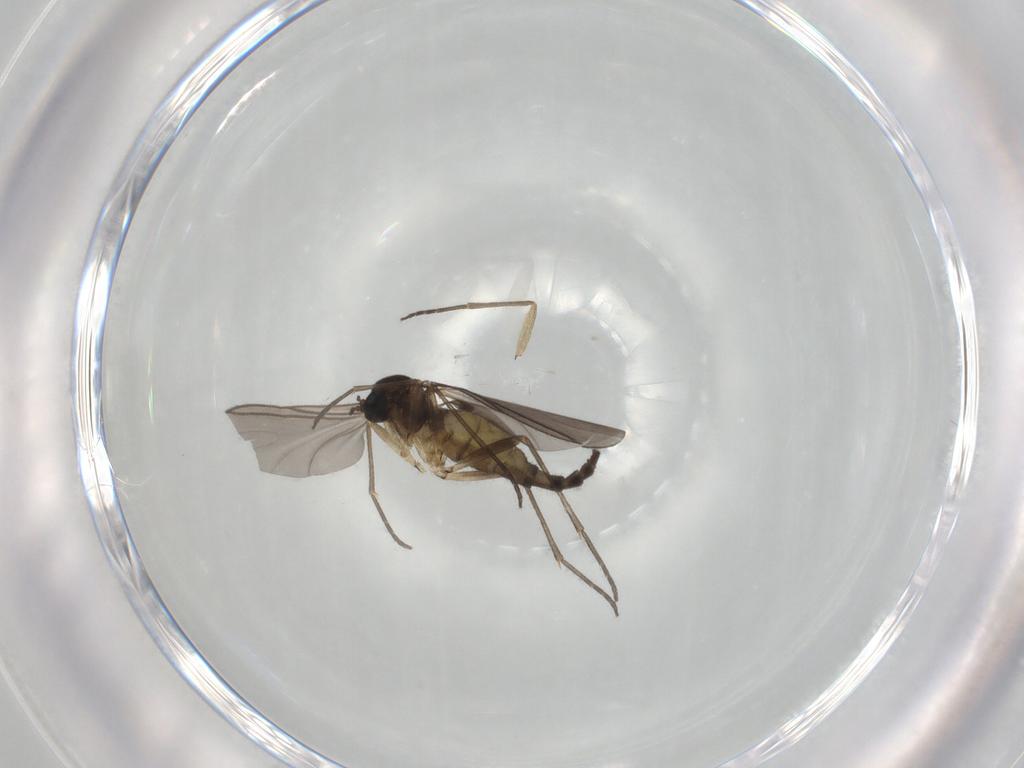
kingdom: Animalia
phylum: Arthropoda
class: Insecta
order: Diptera
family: Sciaridae
